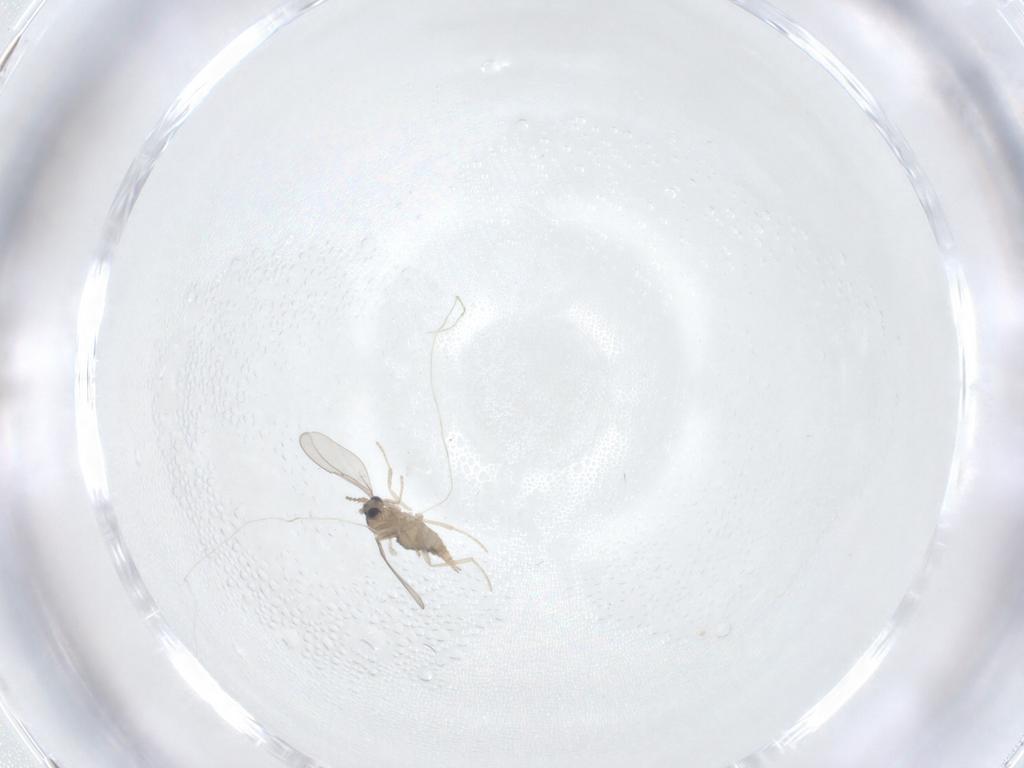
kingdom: Animalia
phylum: Arthropoda
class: Insecta
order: Diptera
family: Cecidomyiidae
